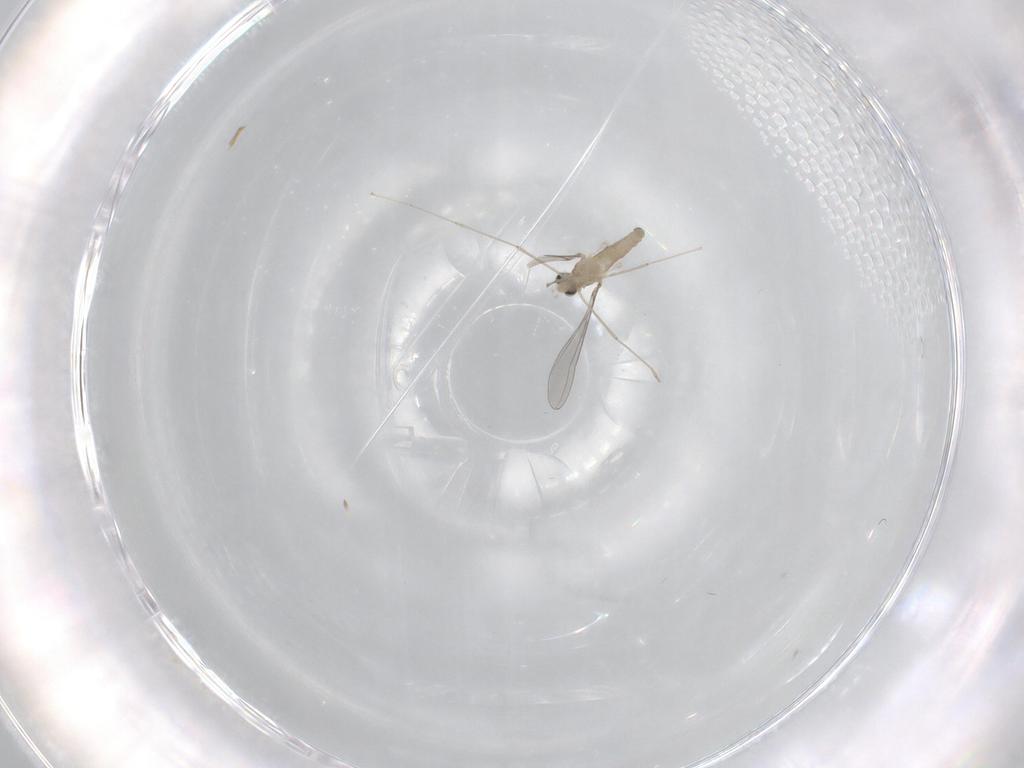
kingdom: Animalia
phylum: Arthropoda
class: Insecta
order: Diptera
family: Cecidomyiidae
